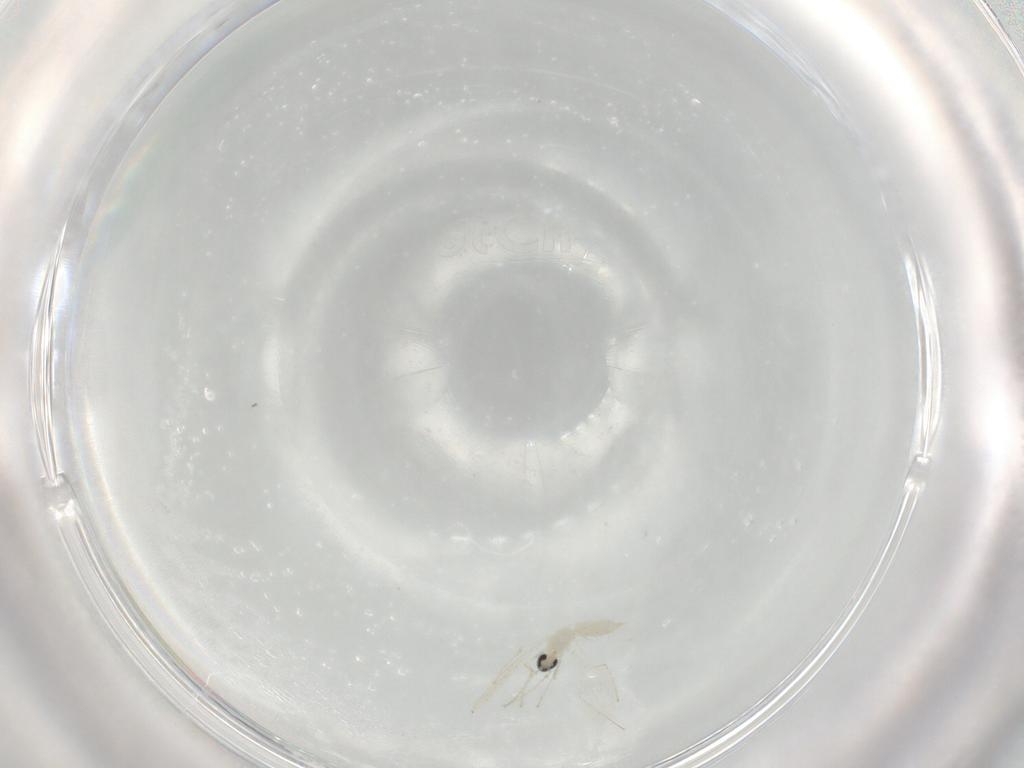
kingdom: Animalia
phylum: Arthropoda
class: Insecta
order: Diptera
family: Cecidomyiidae
